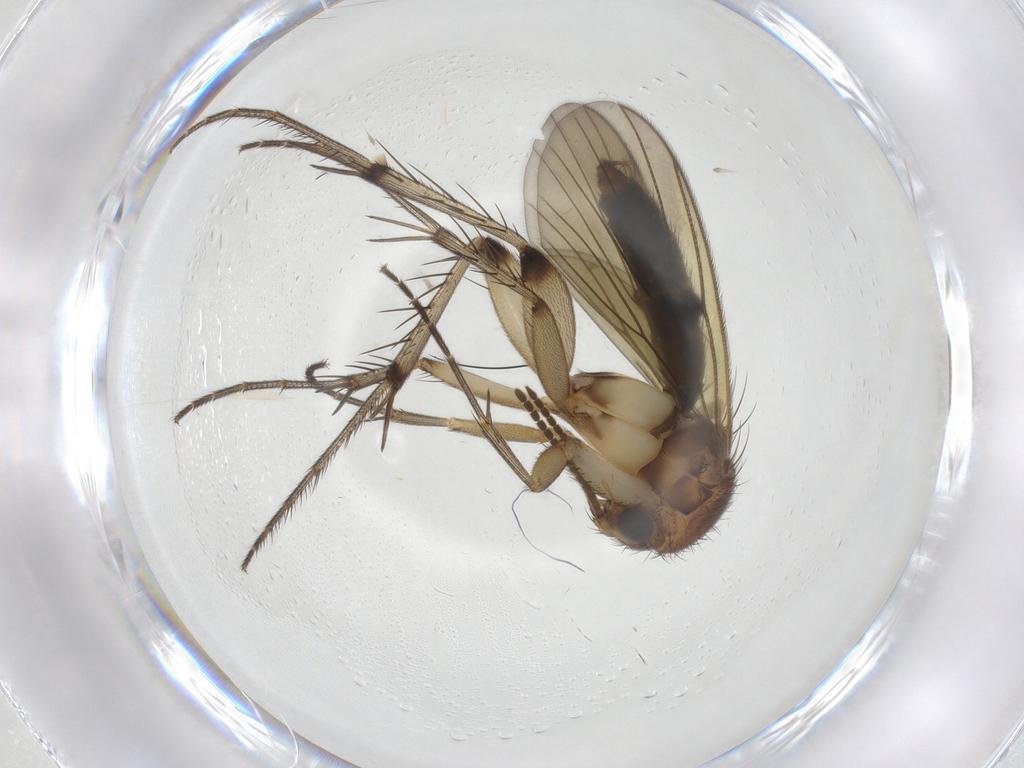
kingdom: Animalia
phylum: Arthropoda
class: Insecta
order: Diptera
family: Mycetophilidae
